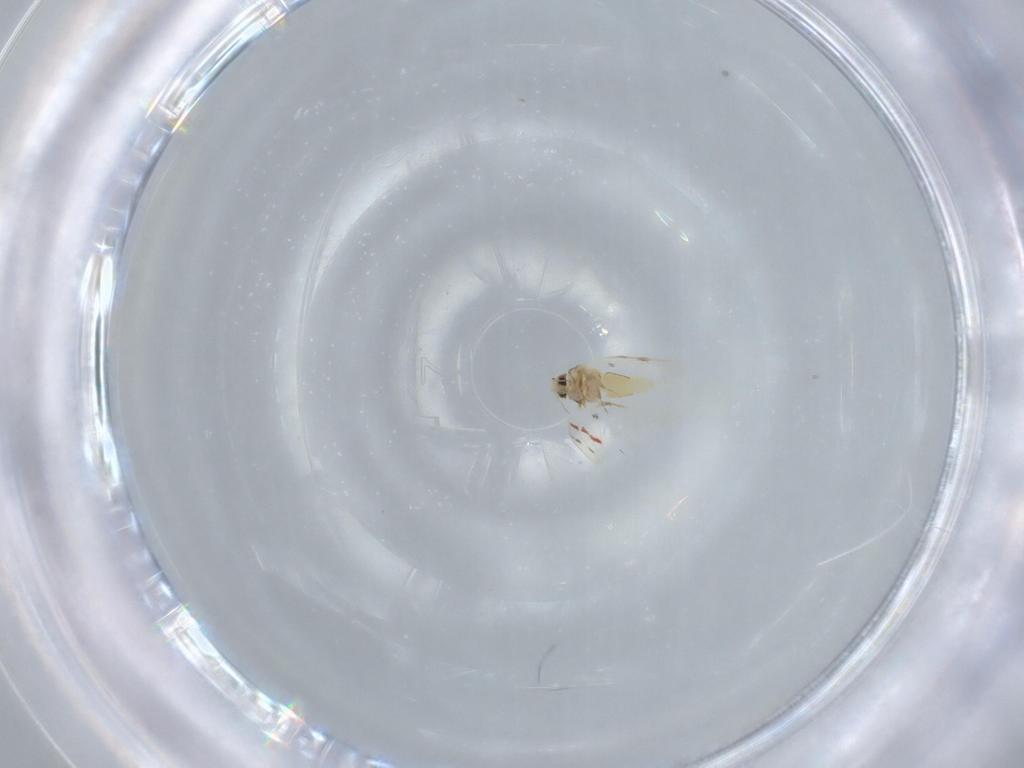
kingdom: Animalia
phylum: Arthropoda
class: Insecta
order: Hemiptera
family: Aleyrodidae
